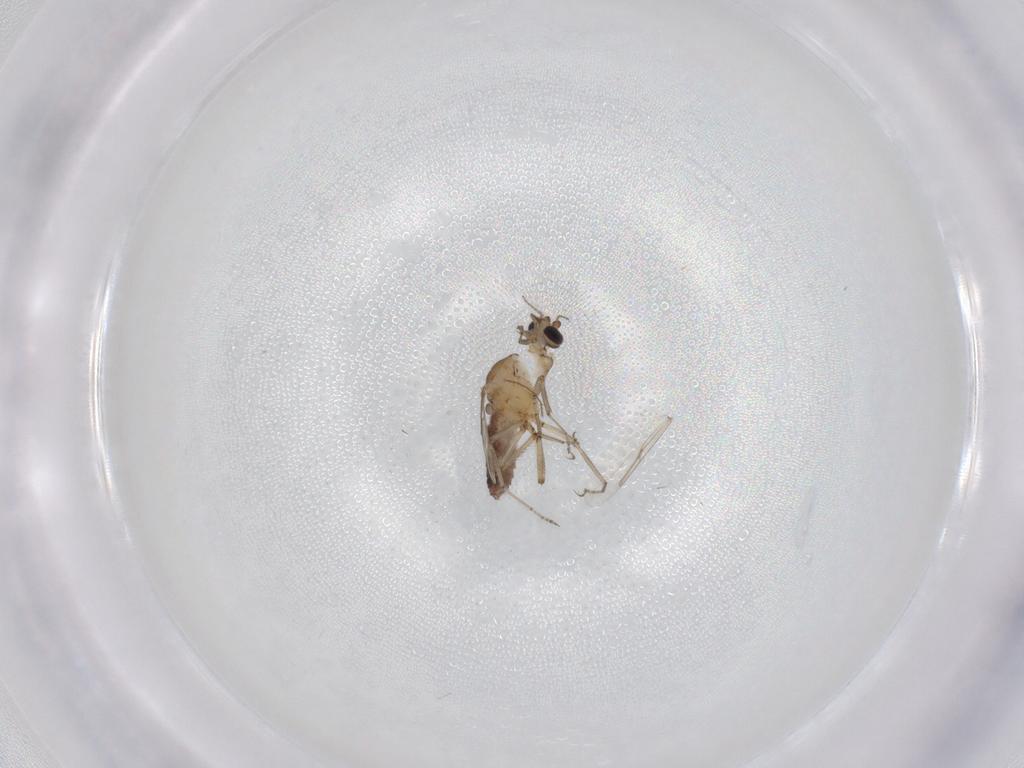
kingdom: Animalia
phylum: Arthropoda
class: Insecta
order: Diptera
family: Ceratopogonidae
